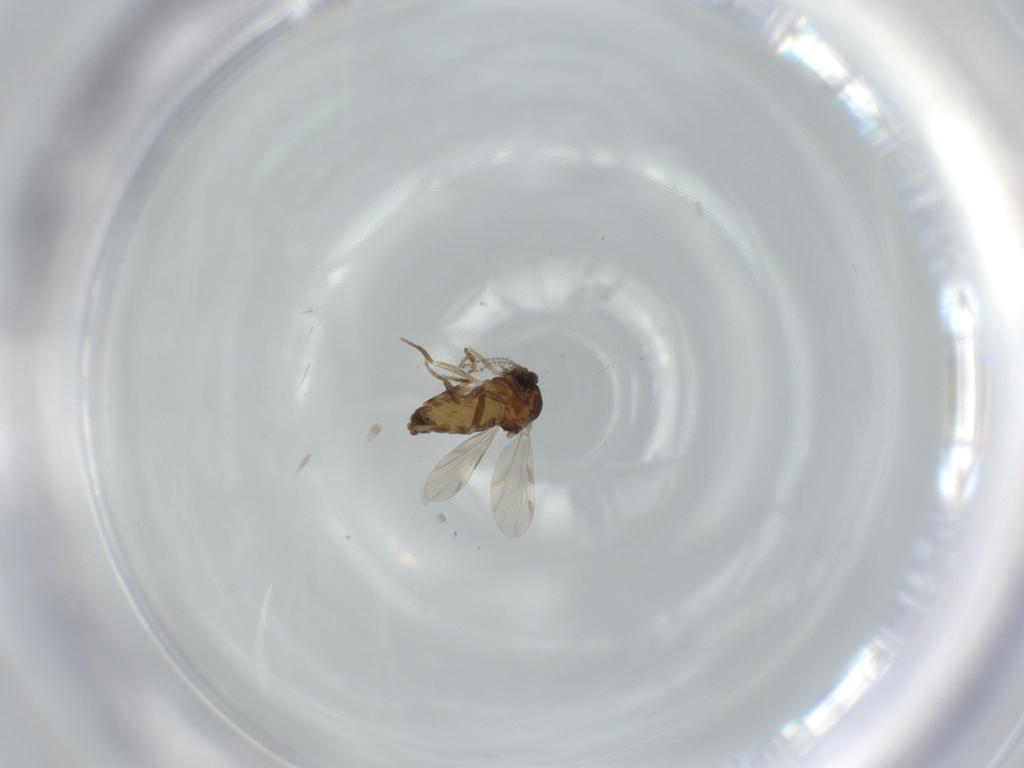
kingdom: Animalia
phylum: Arthropoda
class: Insecta
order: Diptera
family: Ceratopogonidae
